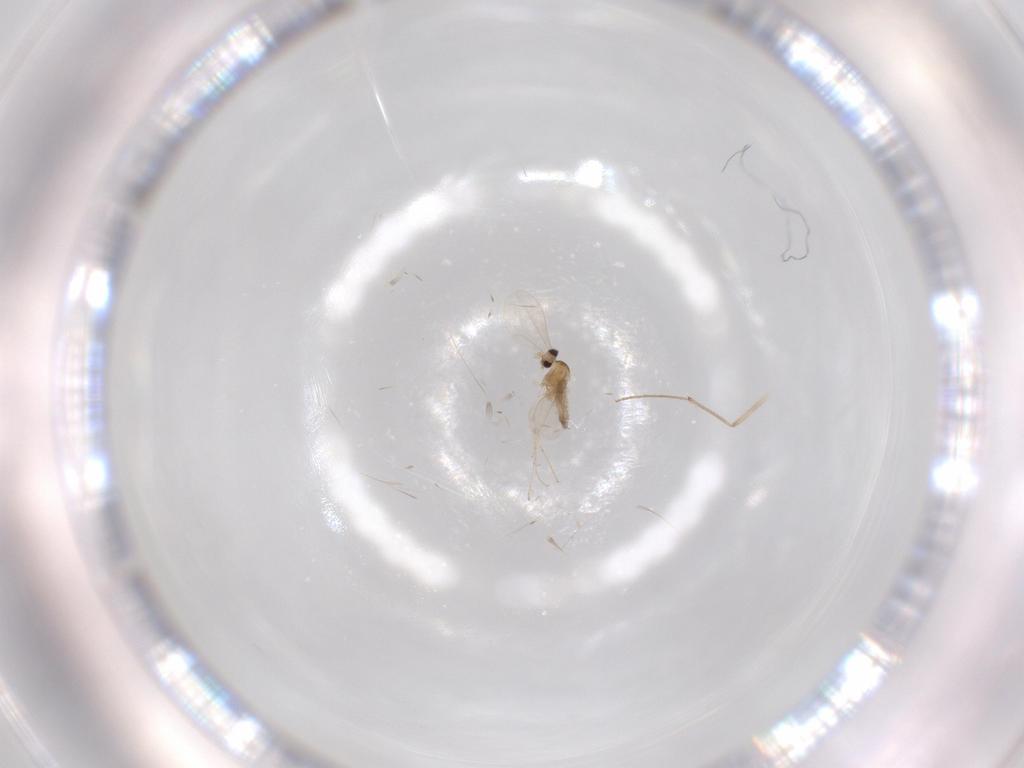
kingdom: Animalia
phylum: Arthropoda
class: Insecta
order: Diptera
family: Cecidomyiidae
